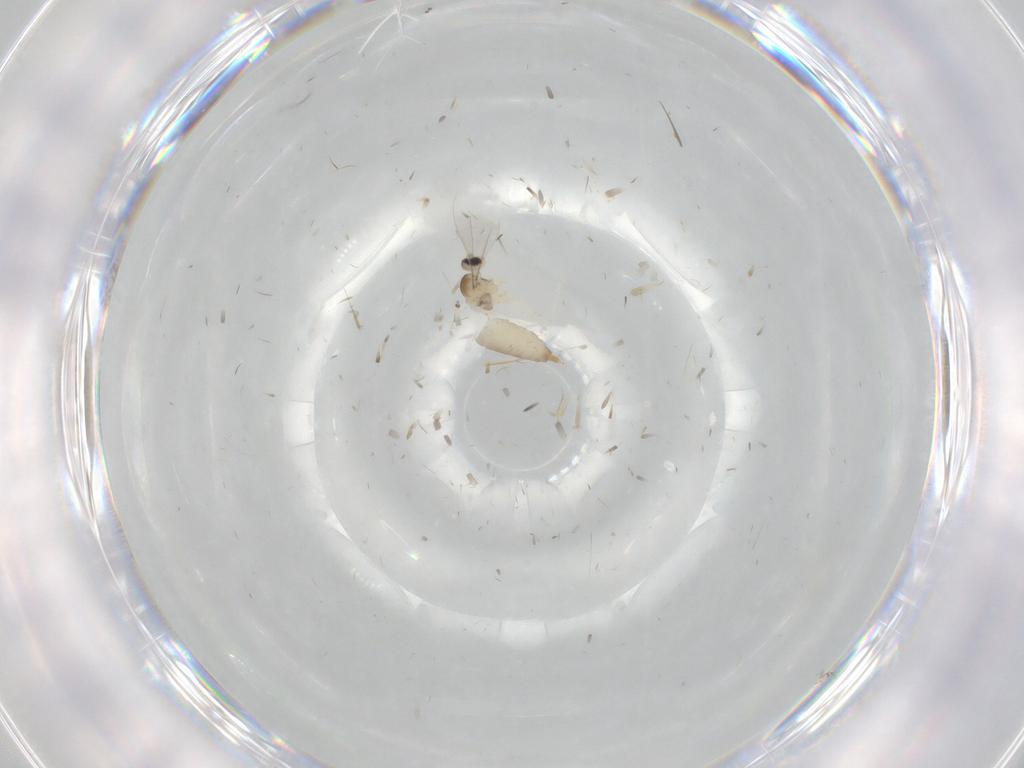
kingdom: Animalia
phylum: Arthropoda
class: Insecta
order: Diptera
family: Psychodidae
